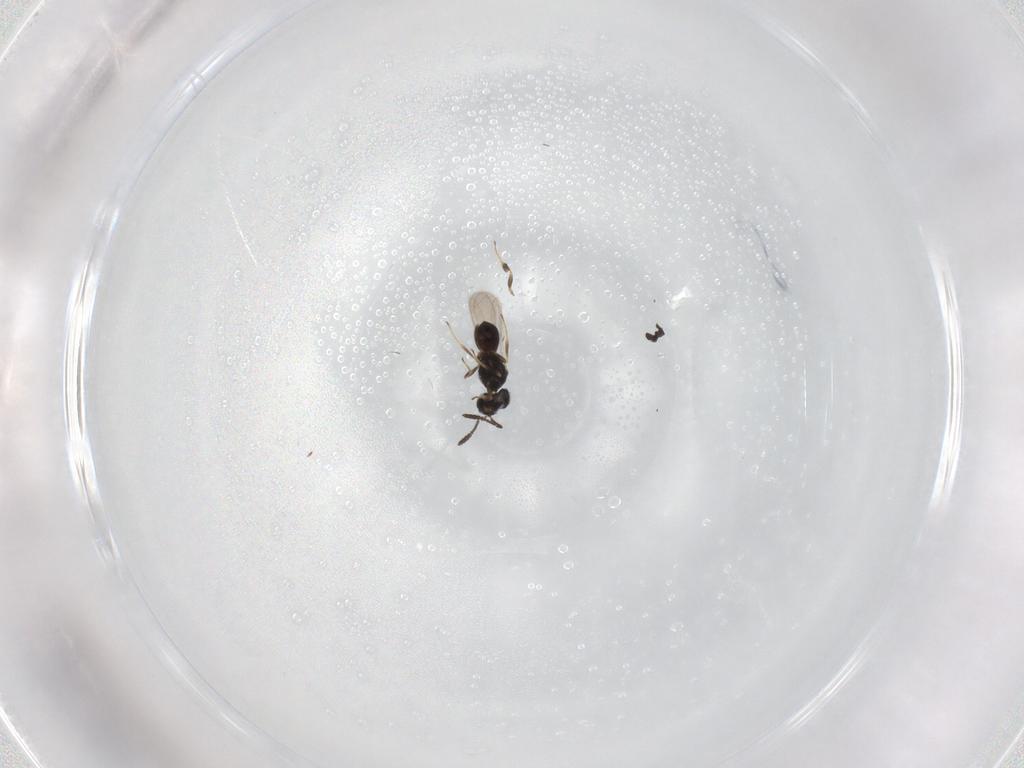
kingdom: Animalia
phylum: Arthropoda
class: Insecta
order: Hymenoptera
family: Scelionidae
